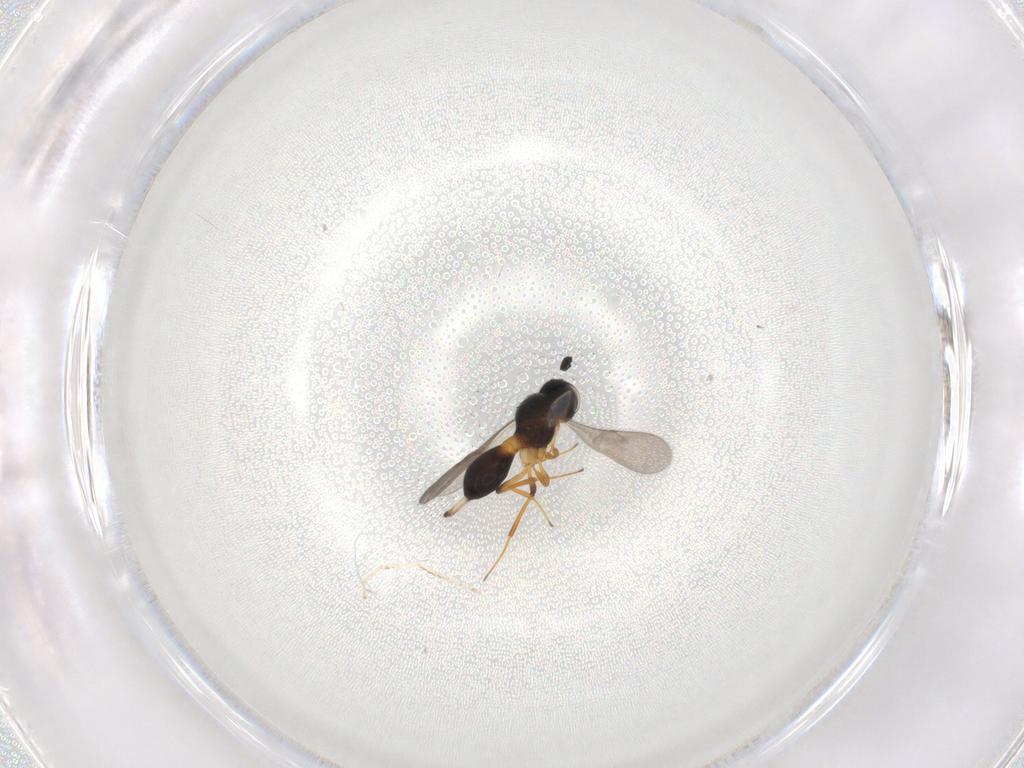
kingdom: Animalia
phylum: Arthropoda
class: Insecta
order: Hymenoptera
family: Scelionidae
